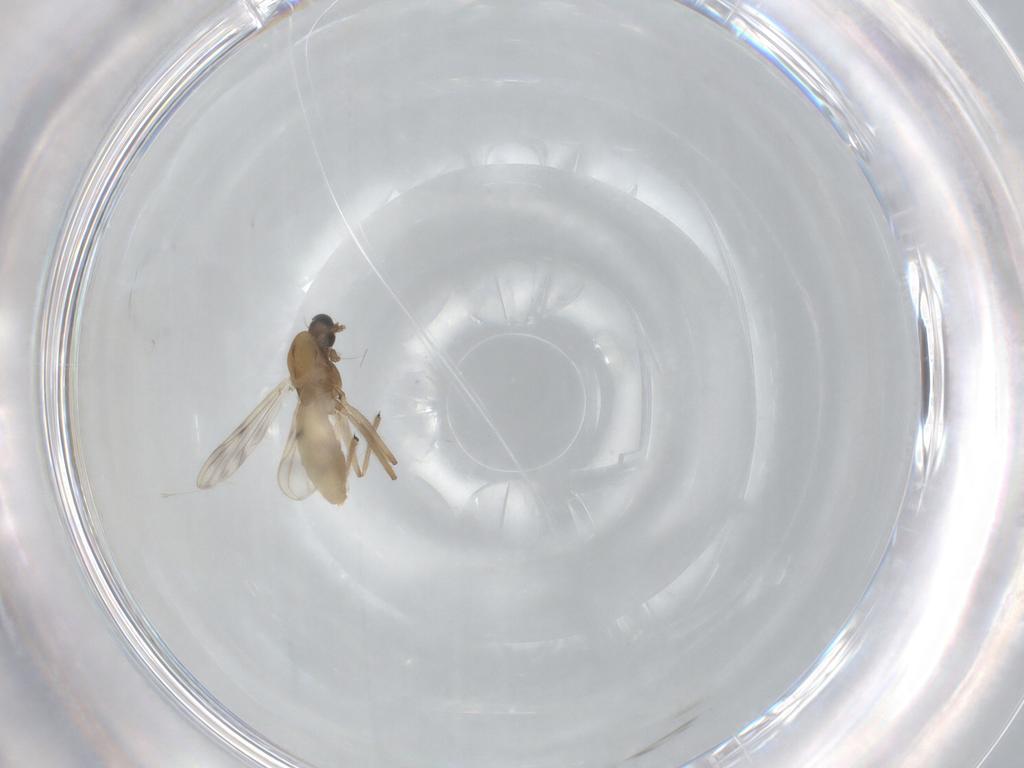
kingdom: Animalia
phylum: Arthropoda
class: Insecta
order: Diptera
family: Chironomidae
